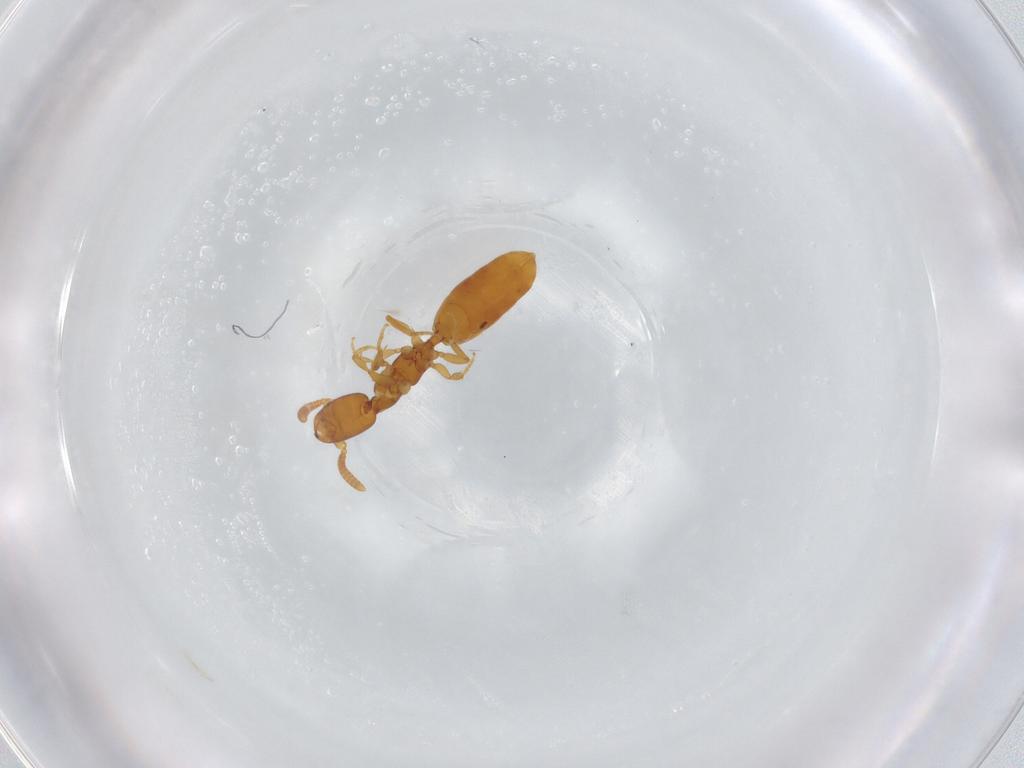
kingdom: Animalia
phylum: Arthropoda
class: Insecta
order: Hymenoptera
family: Bethylidae
